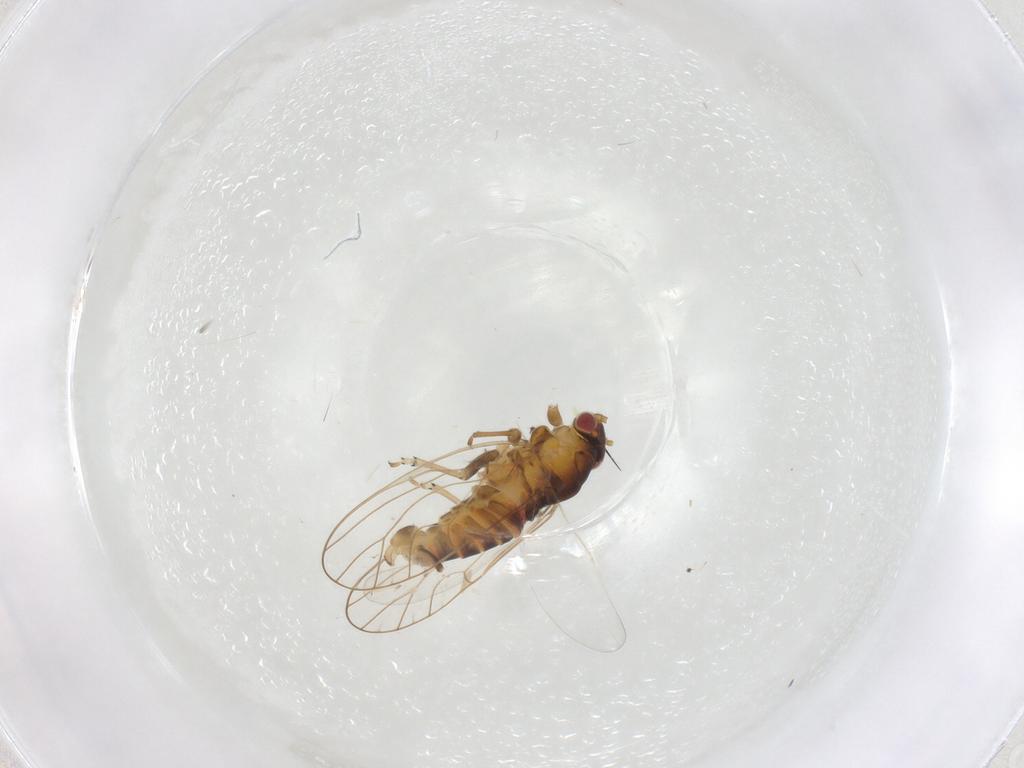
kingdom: Animalia
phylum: Arthropoda
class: Insecta
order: Hemiptera
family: Psyllidae
